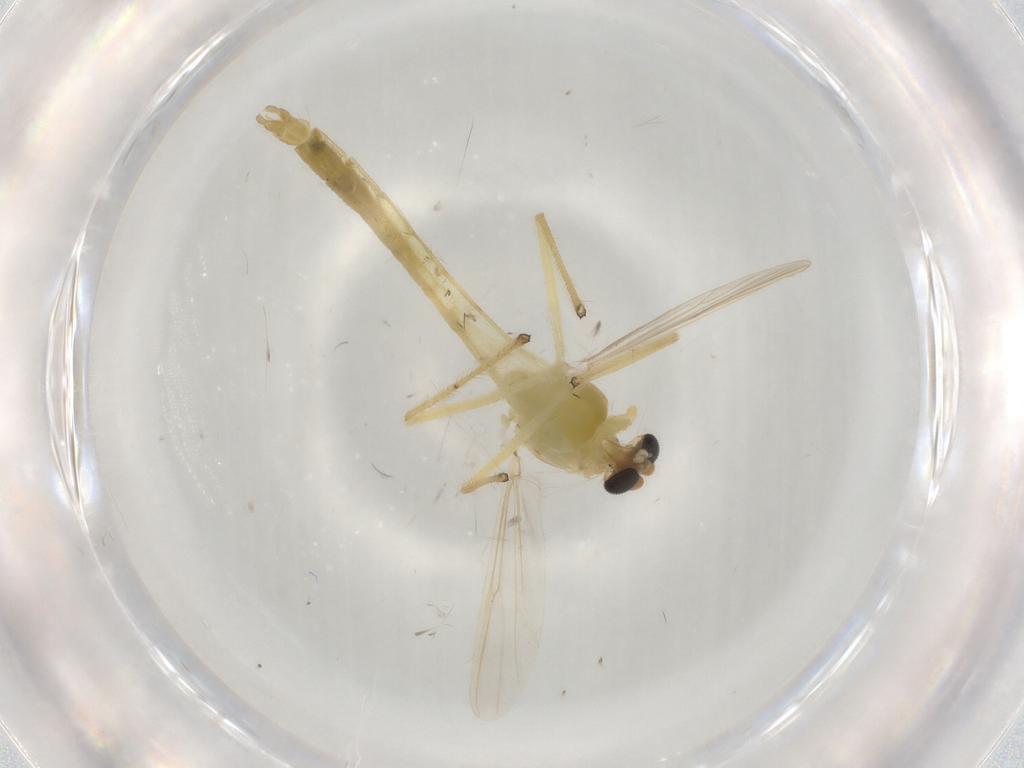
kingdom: Animalia
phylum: Arthropoda
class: Insecta
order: Diptera
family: Chironomidae
